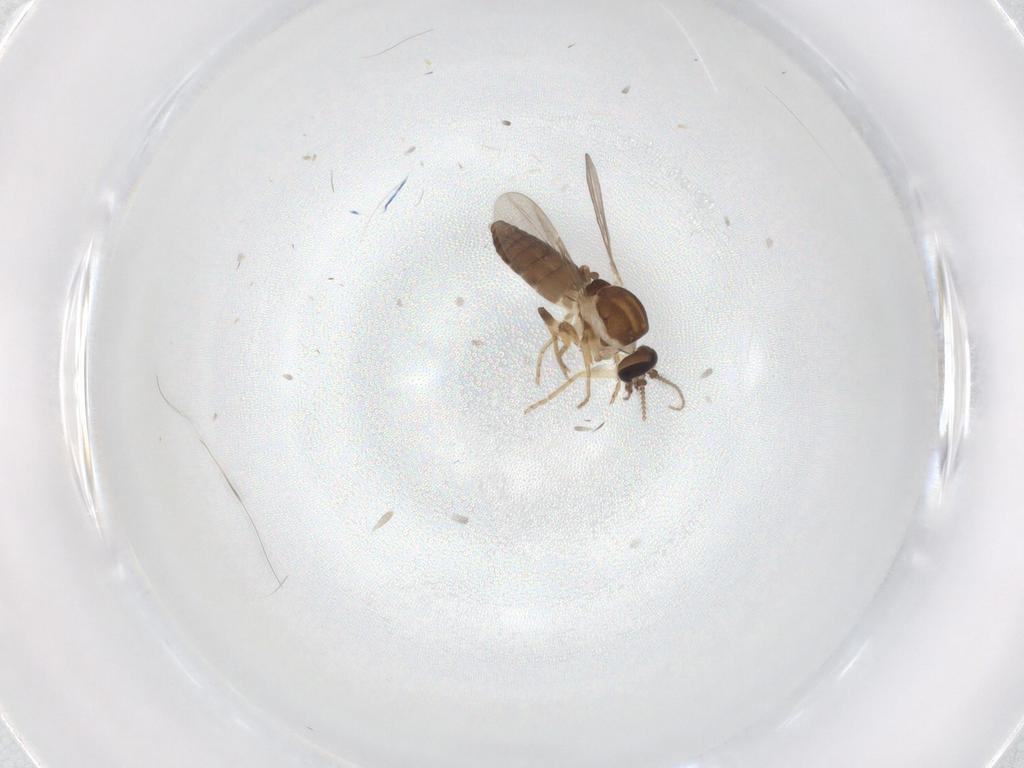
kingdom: Animalia
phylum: Arthropoda
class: Insecta
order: Diptera
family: Ceratopogonidae
